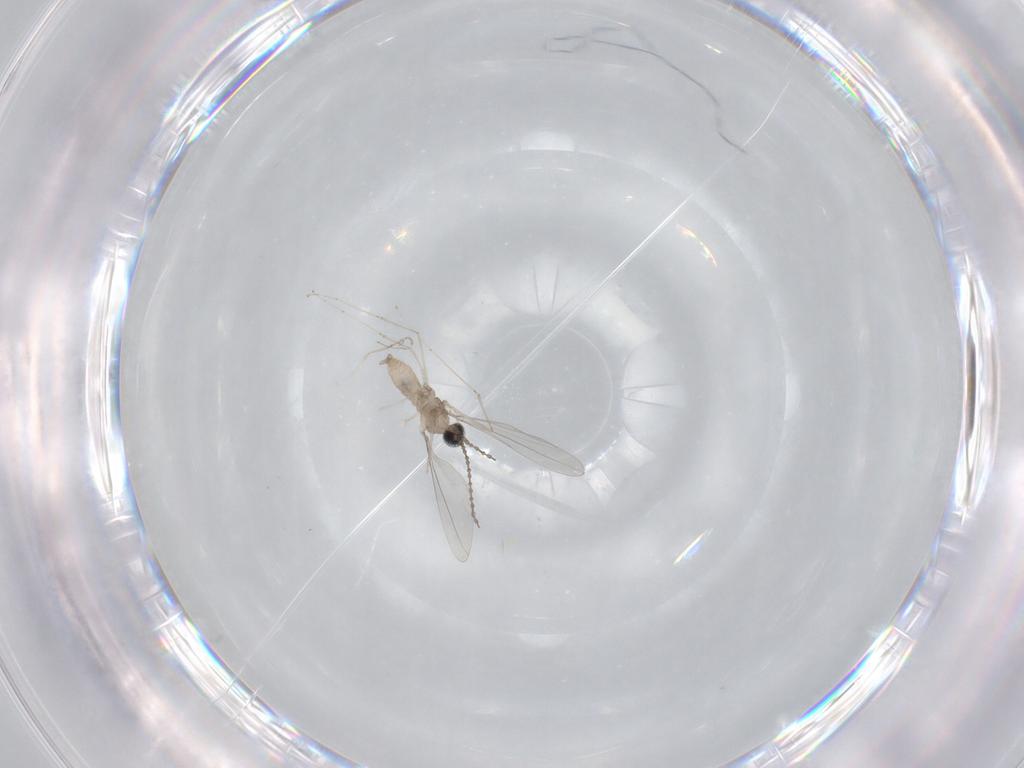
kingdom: Animalia
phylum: Arthropoda
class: Insecta
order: Diptera
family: Cecidomyiidae
